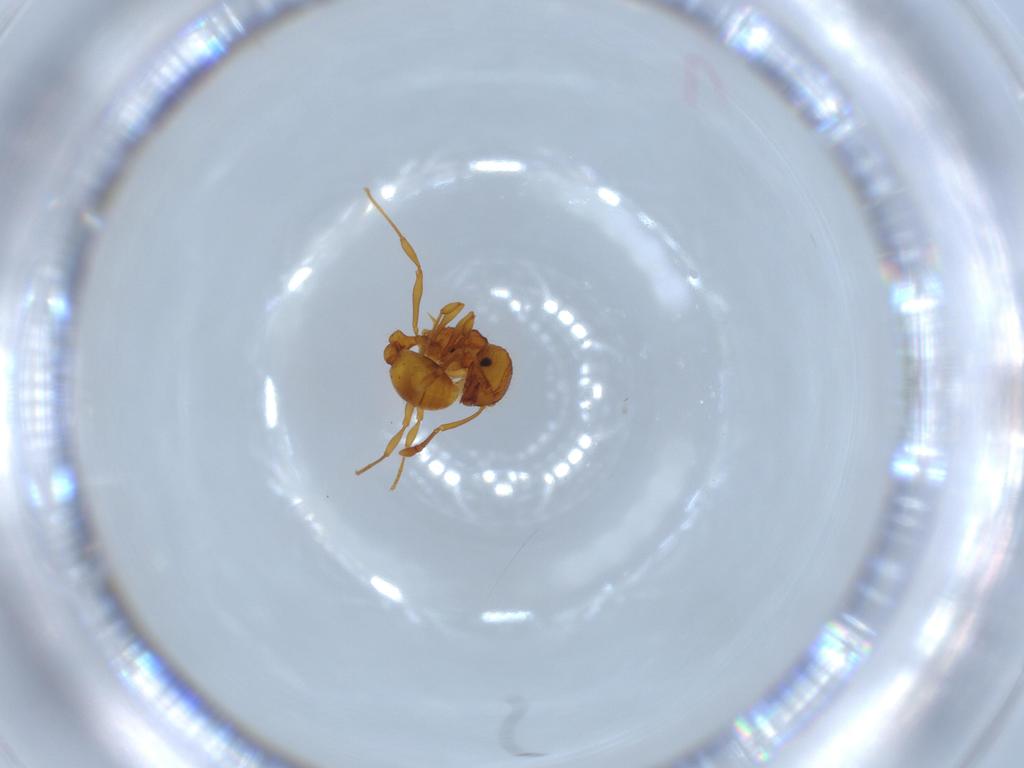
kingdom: Animalia
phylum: Arthropoda
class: Insecta
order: Hymenoptera
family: Formicidae
